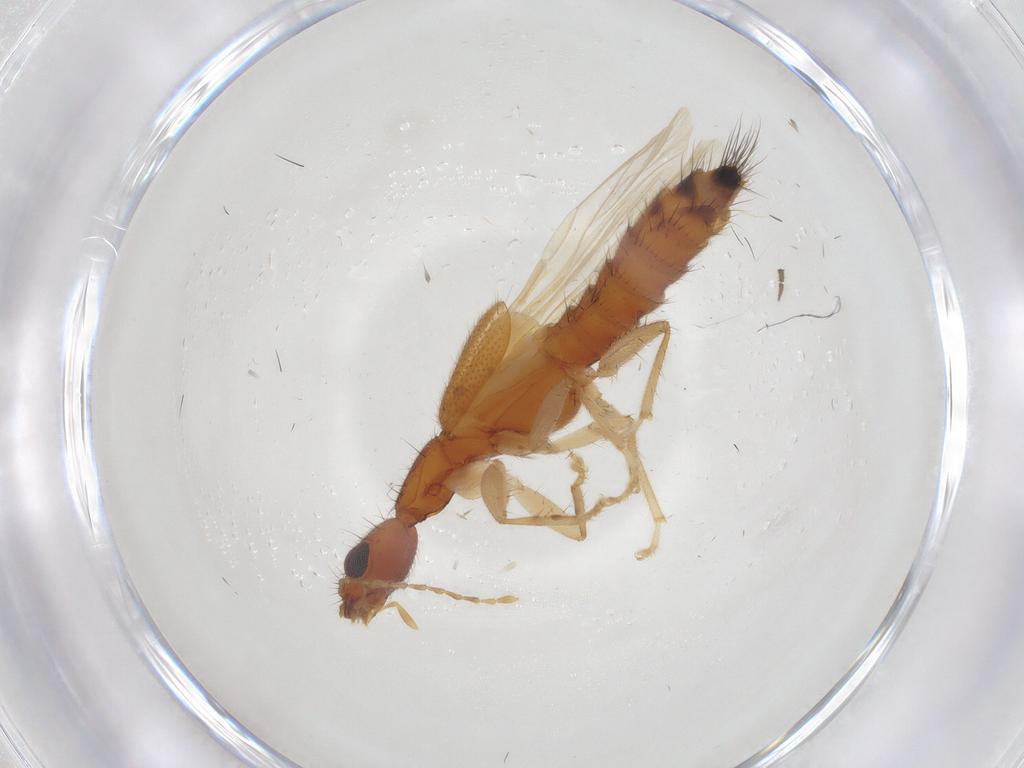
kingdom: Animalia
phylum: Arthropoda
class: Insecta
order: Coleoptera
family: Staphylinidae
